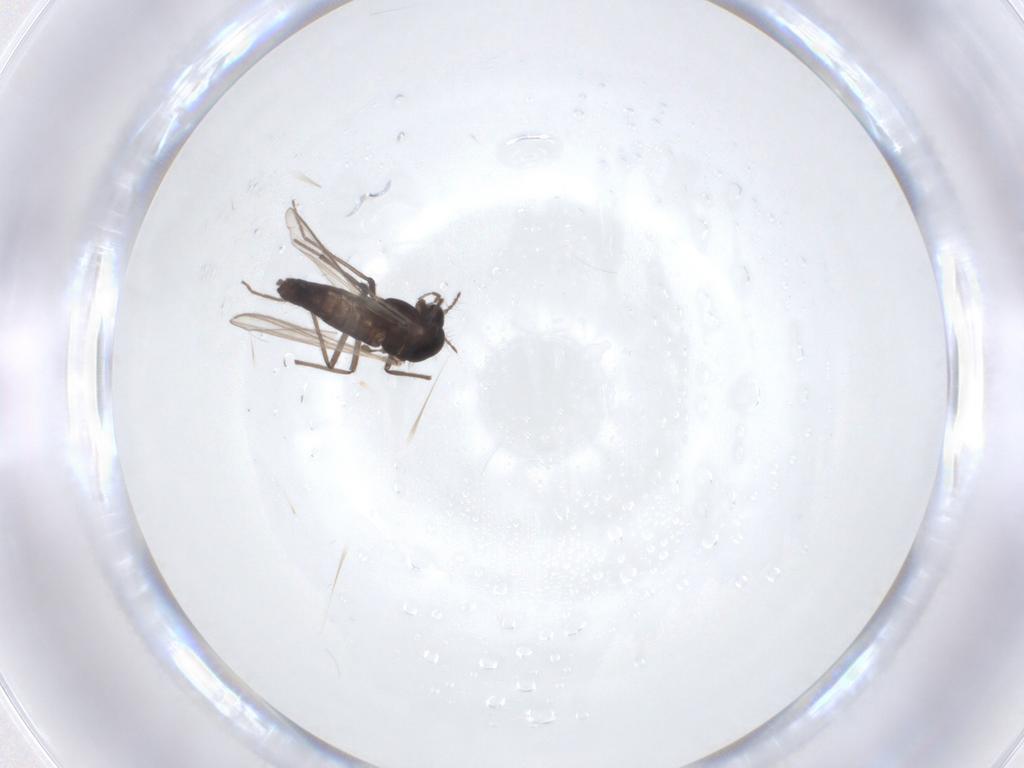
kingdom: Animalia
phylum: Arthropoda
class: Insecta
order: Diptera
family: Chironomidae
